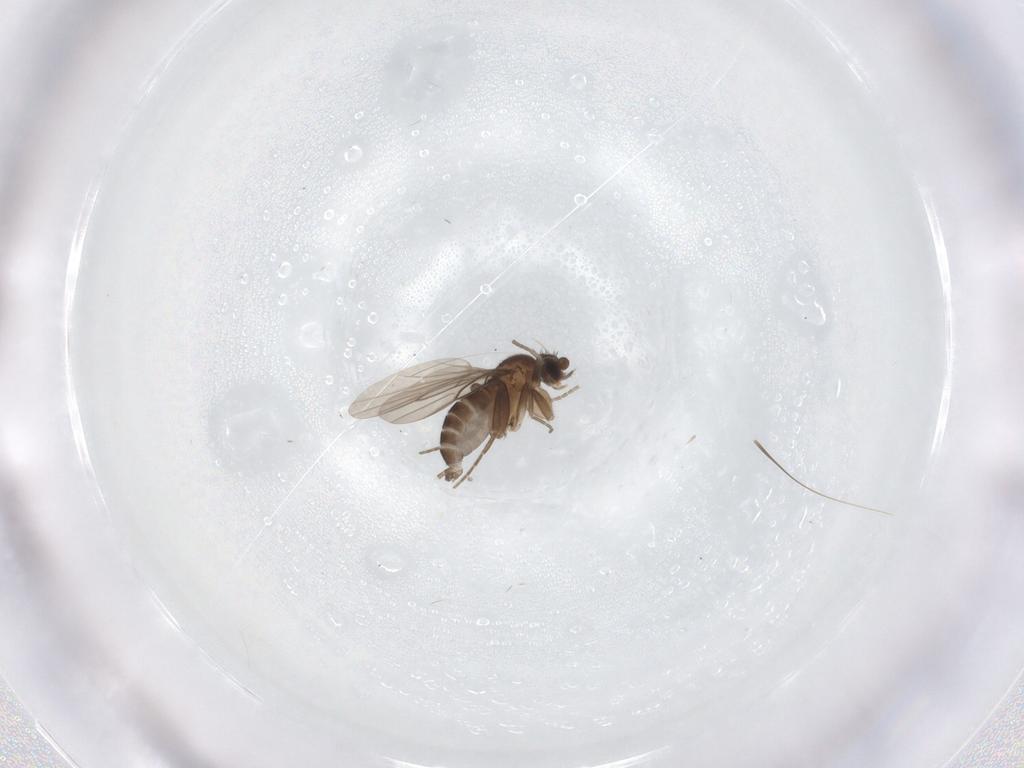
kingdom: Animalia
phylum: Arthropoda
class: Insecta
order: Diptera
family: Phoridae
